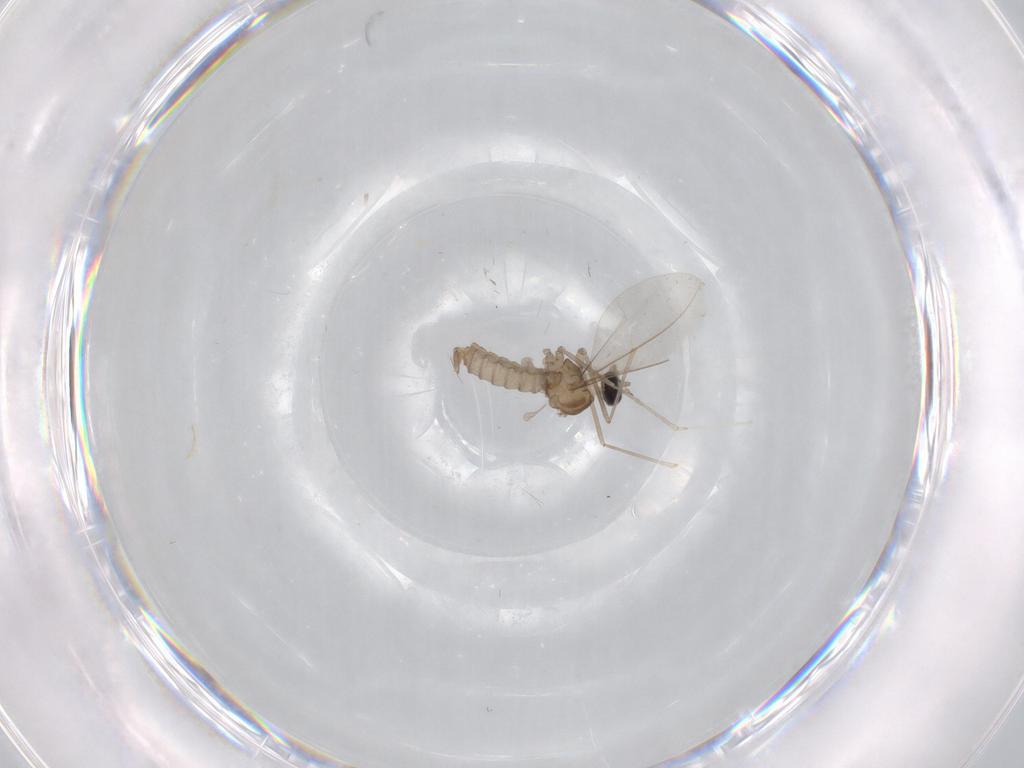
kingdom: Animalia
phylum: Arthropoda
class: Insecta
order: Diptera
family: Cecidomyiidae
